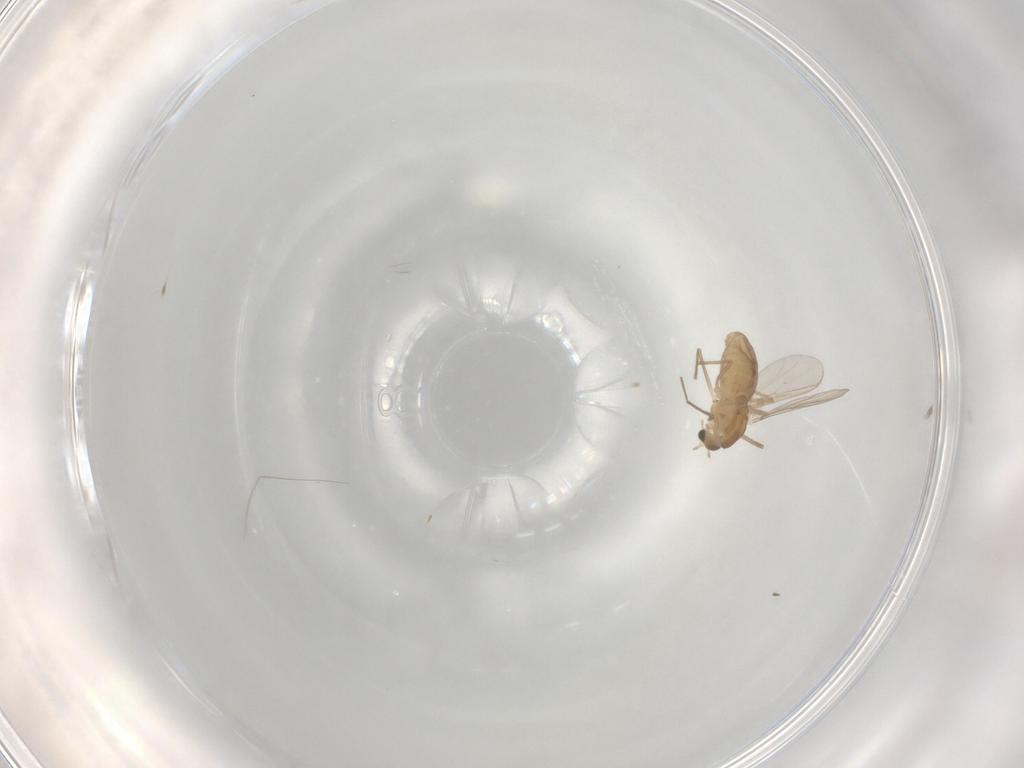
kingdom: Animalia
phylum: Arthropoda
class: Insecta
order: Diptera
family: Chironomidae
